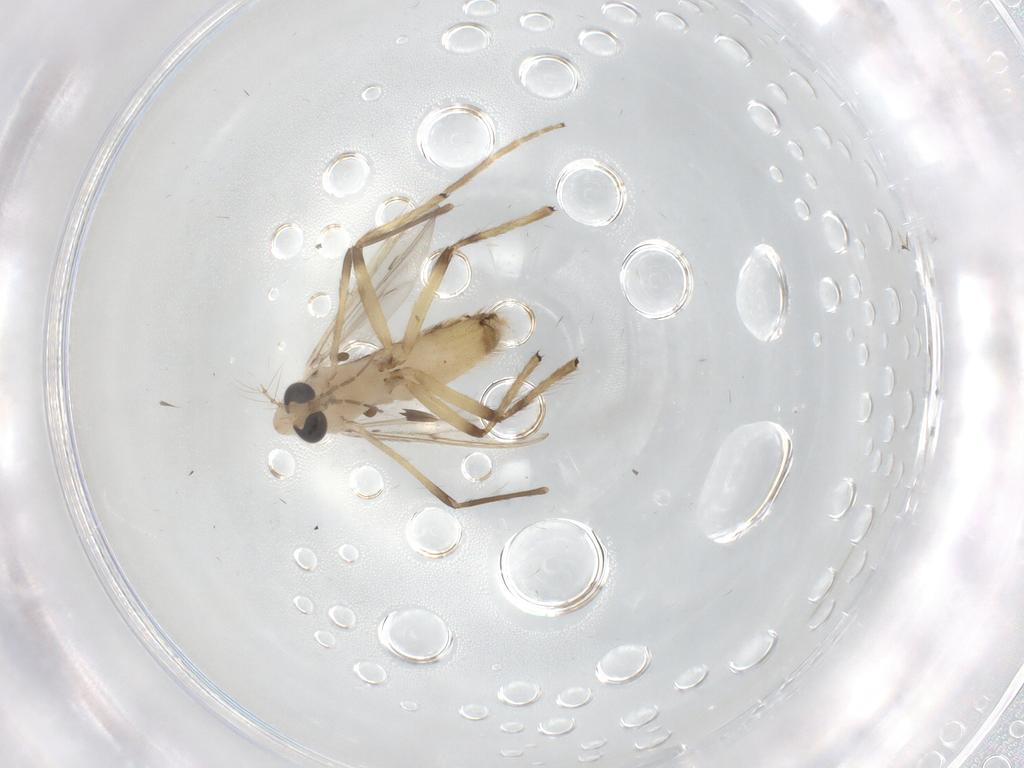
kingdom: Animalia
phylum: Arthropoda
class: Insecta
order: Diptera
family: Chironomidae
